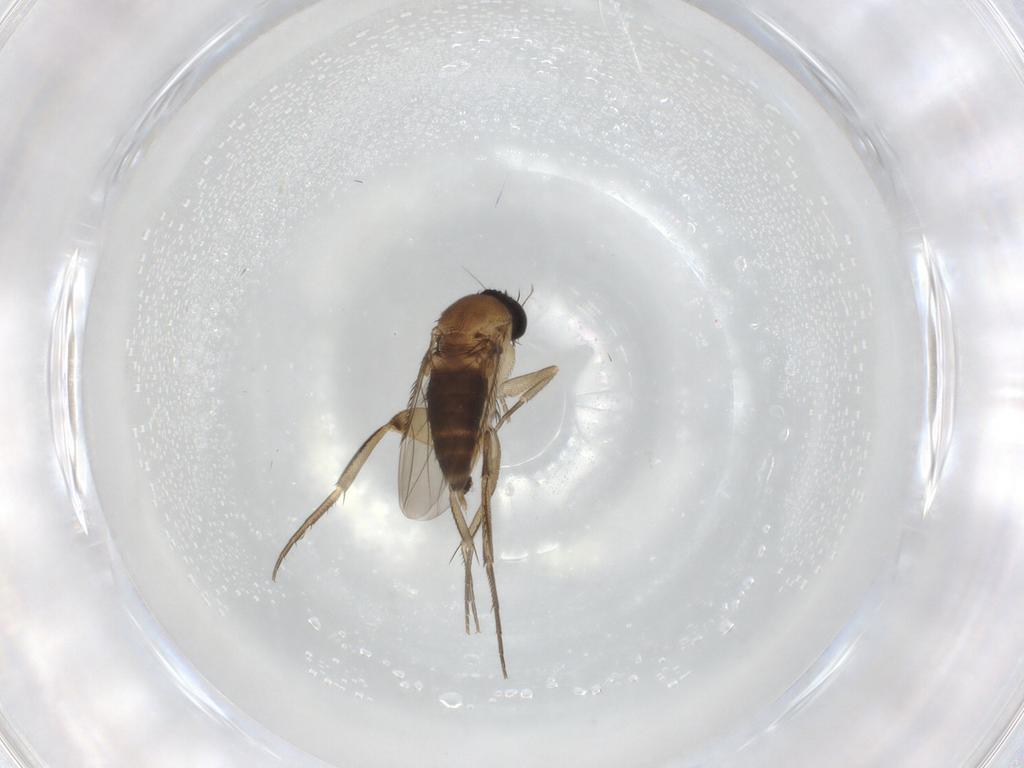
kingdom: Animalia
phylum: Arthropoda
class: Insecta
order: Diptera
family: Phoridae
